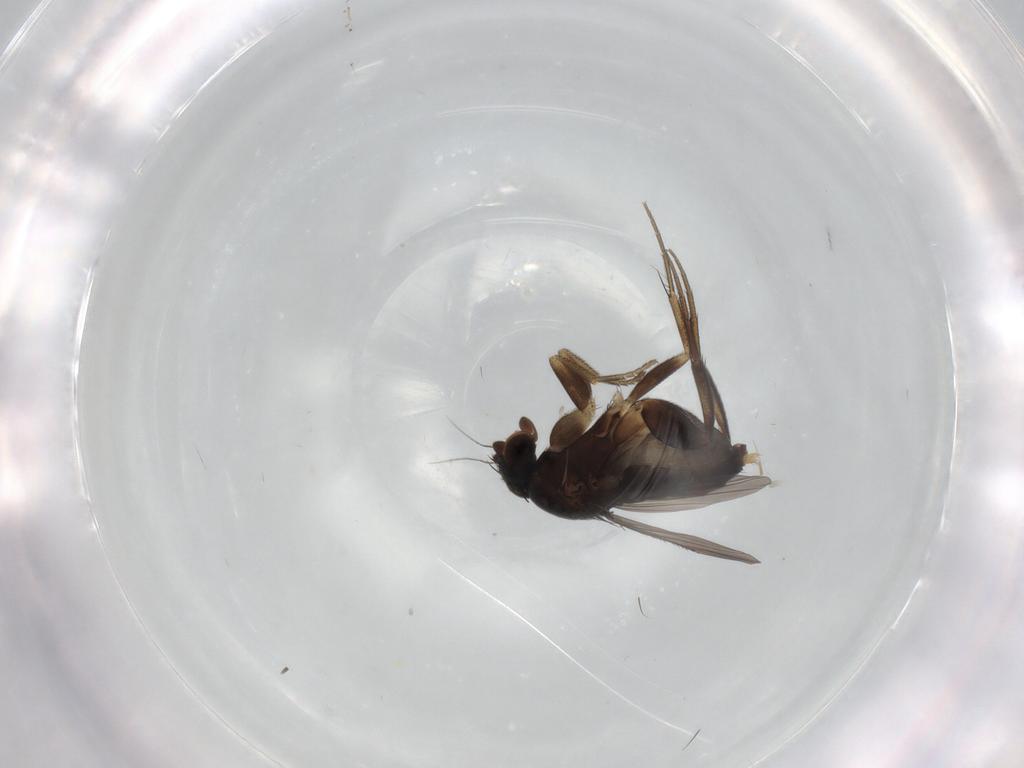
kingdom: Animalia
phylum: Arthropoda
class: Insecta
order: Diptera
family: Phoridae
